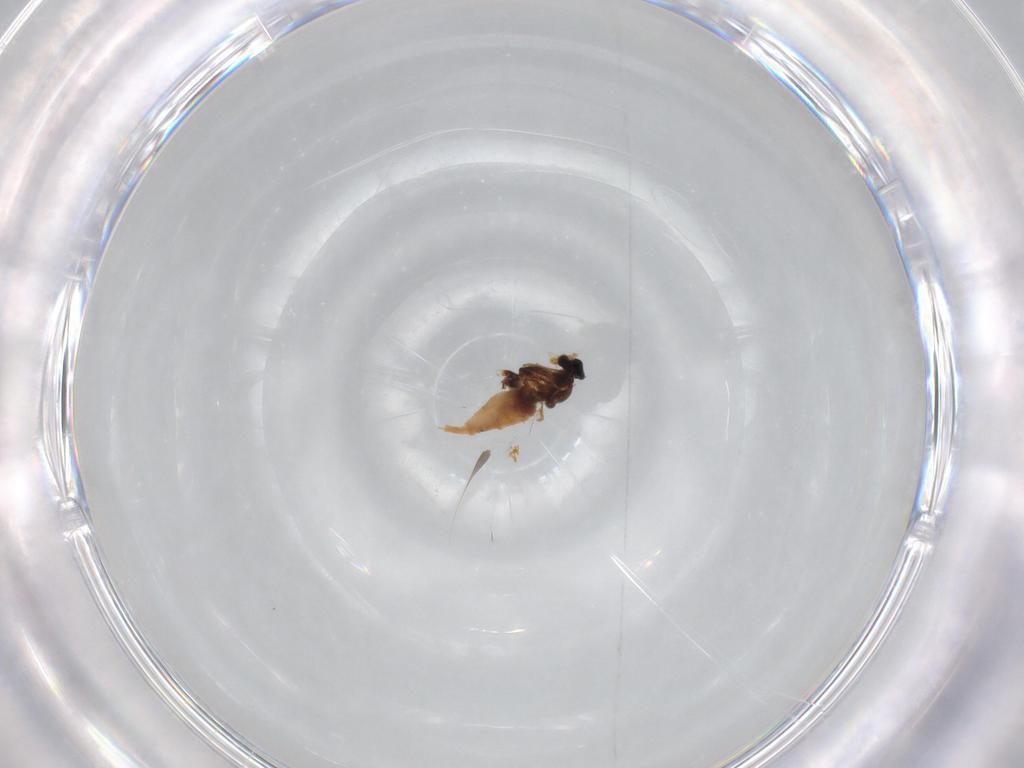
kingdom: Animalia
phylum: Arthropoda
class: Insecta
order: Diptera
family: Cecidomyiidae
